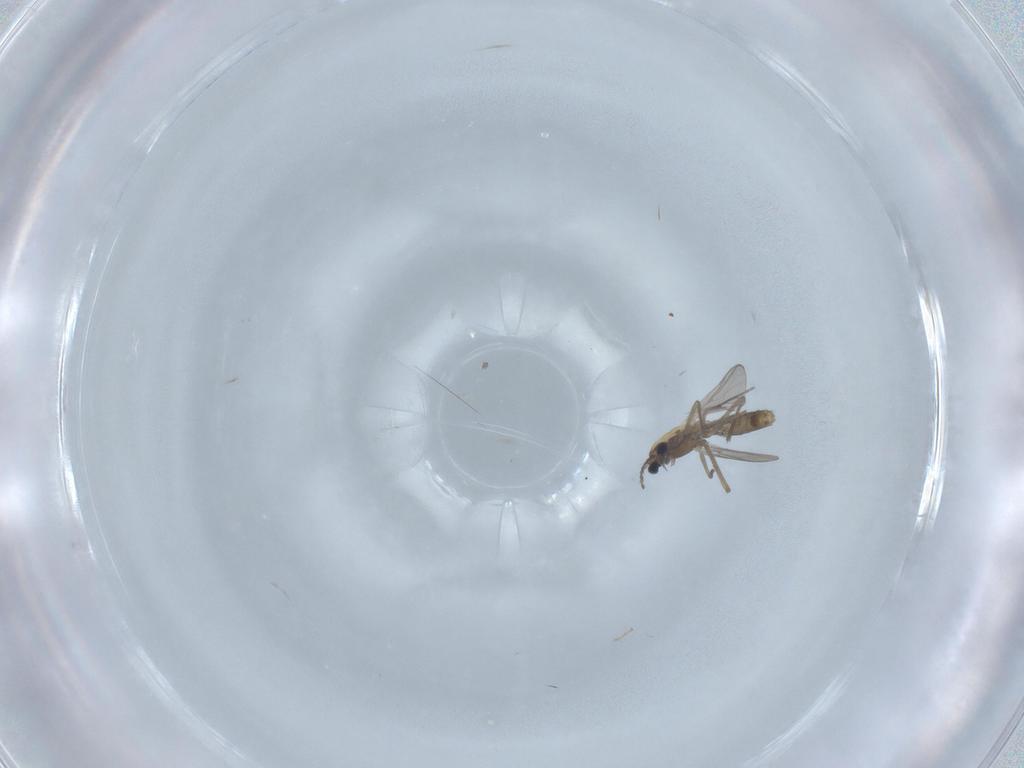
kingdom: Animalia
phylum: Arthropoda
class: Insecta
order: Diptera
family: Chironomidae
